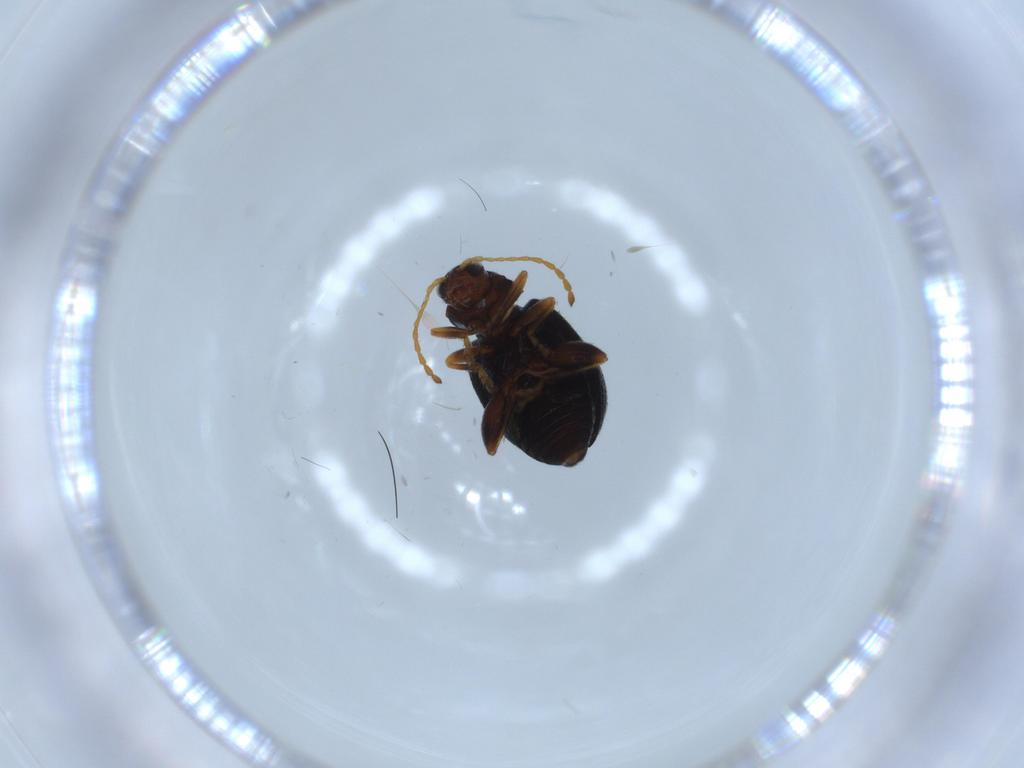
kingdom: Animalia
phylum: Arthropoda
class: Insecta
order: Coleoptera
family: Chrysomelidae
